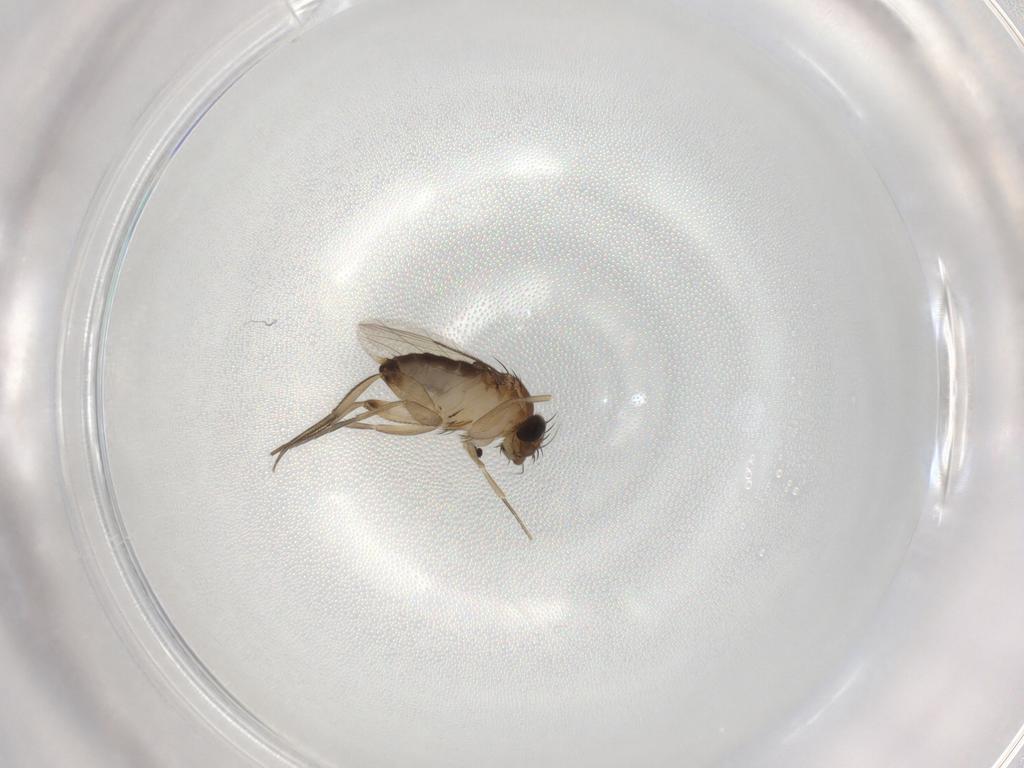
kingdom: Animalia
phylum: Arthropoda
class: Insecta
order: Diptera
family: Phoridae
